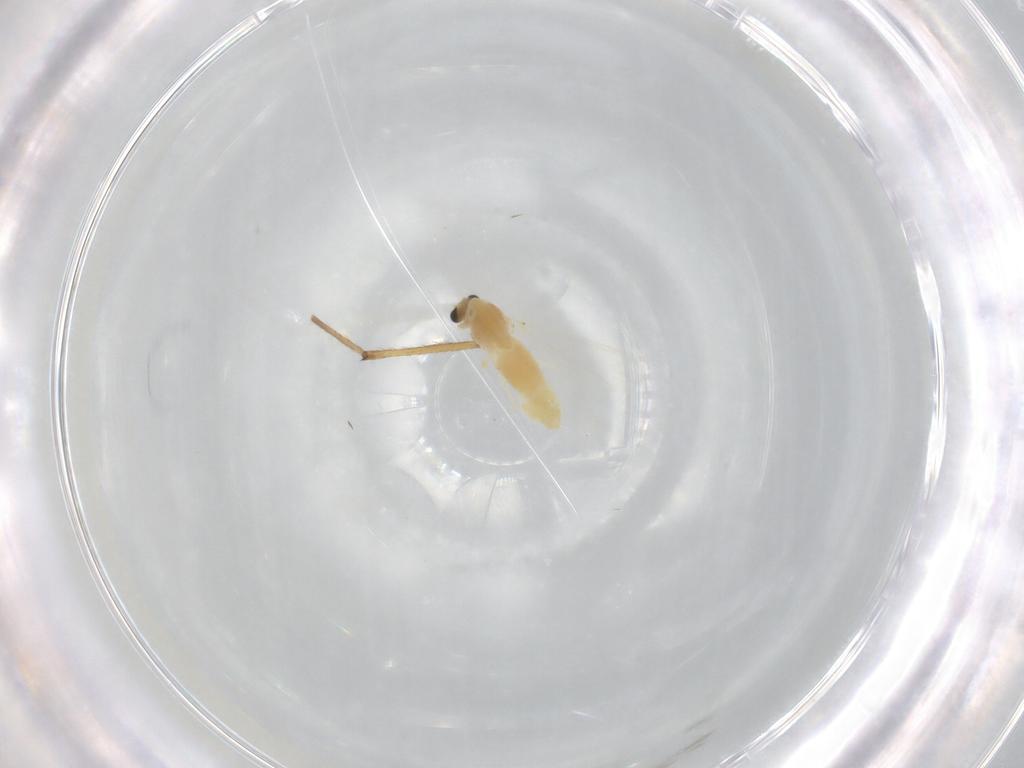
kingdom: Animalia
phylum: Arthropoda
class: Insecta
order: Diptera
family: Chironomidae
